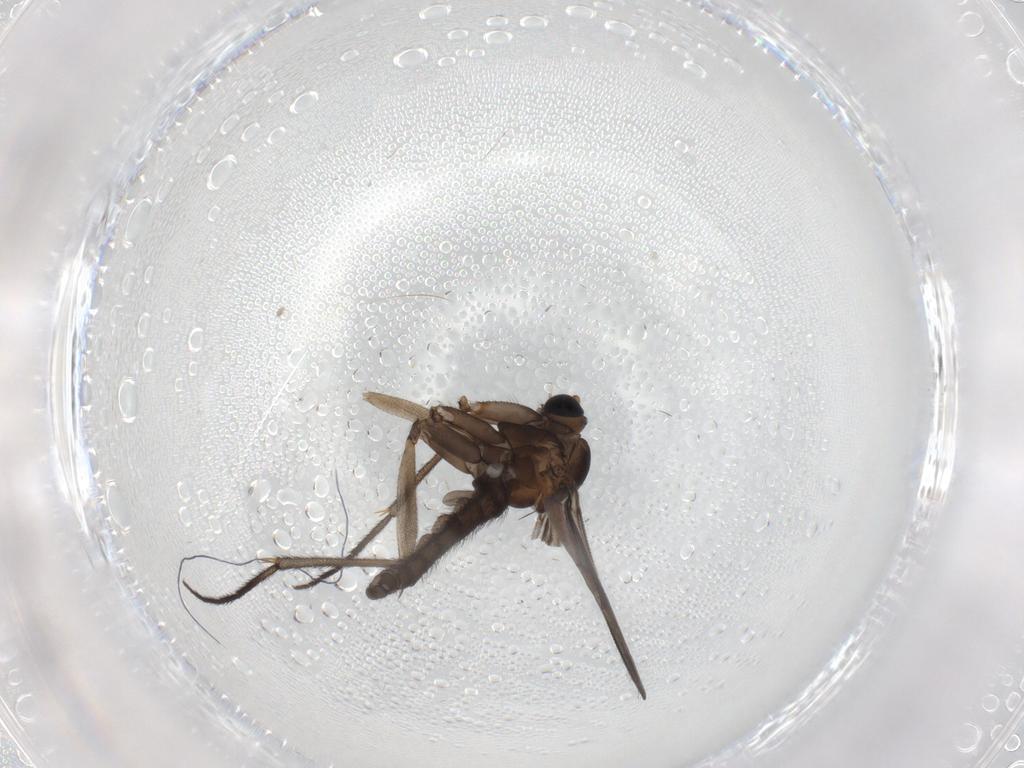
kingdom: Animalia
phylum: Arthropoda
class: Insecta
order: Diptera
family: Sciaridae
